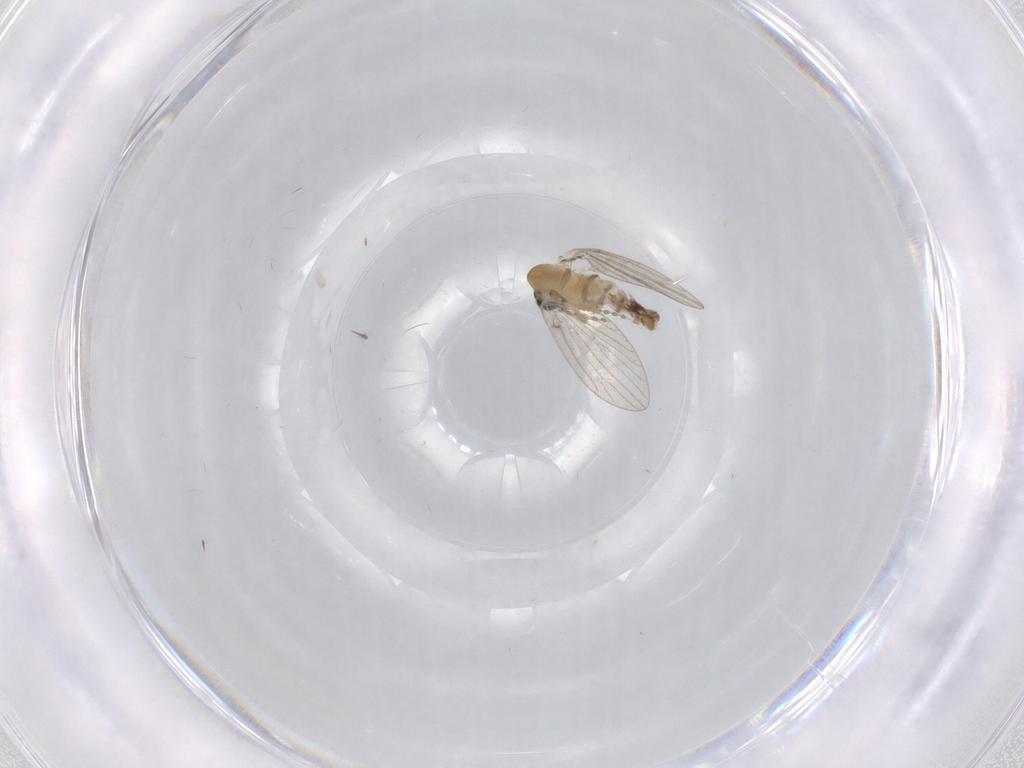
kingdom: Animalia
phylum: Arthropoda
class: Insecta
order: Diptera
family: Psychodidae
